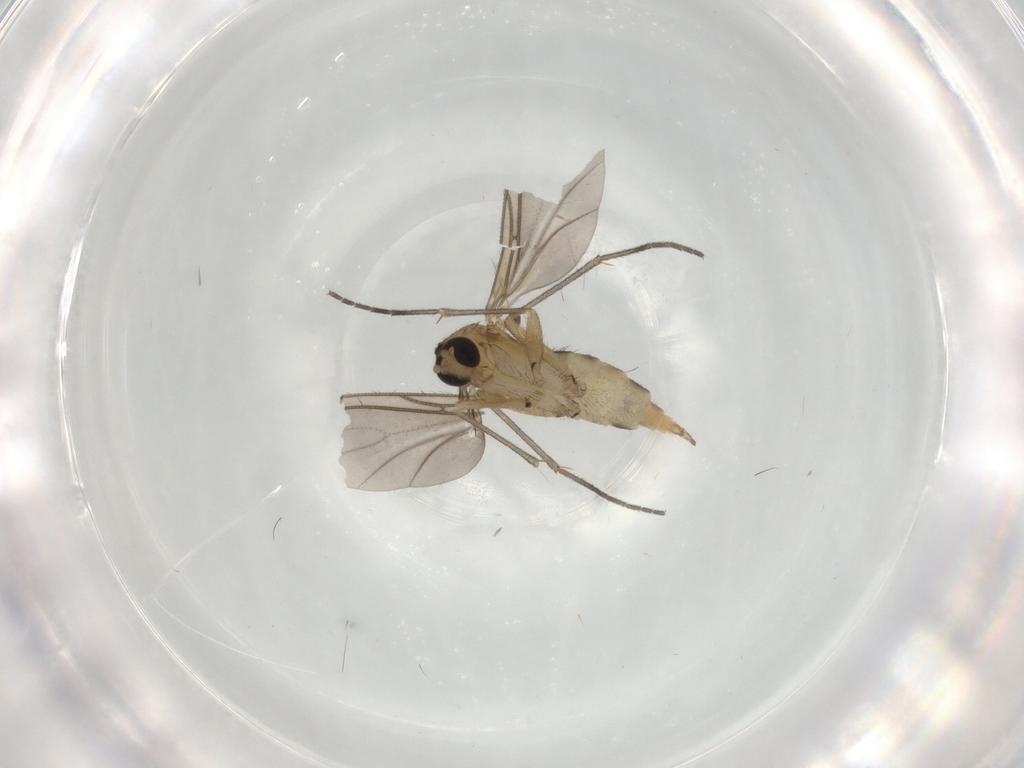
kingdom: Animalia
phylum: Arthropoda
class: Insecta
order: Diptera
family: Sciaridae
